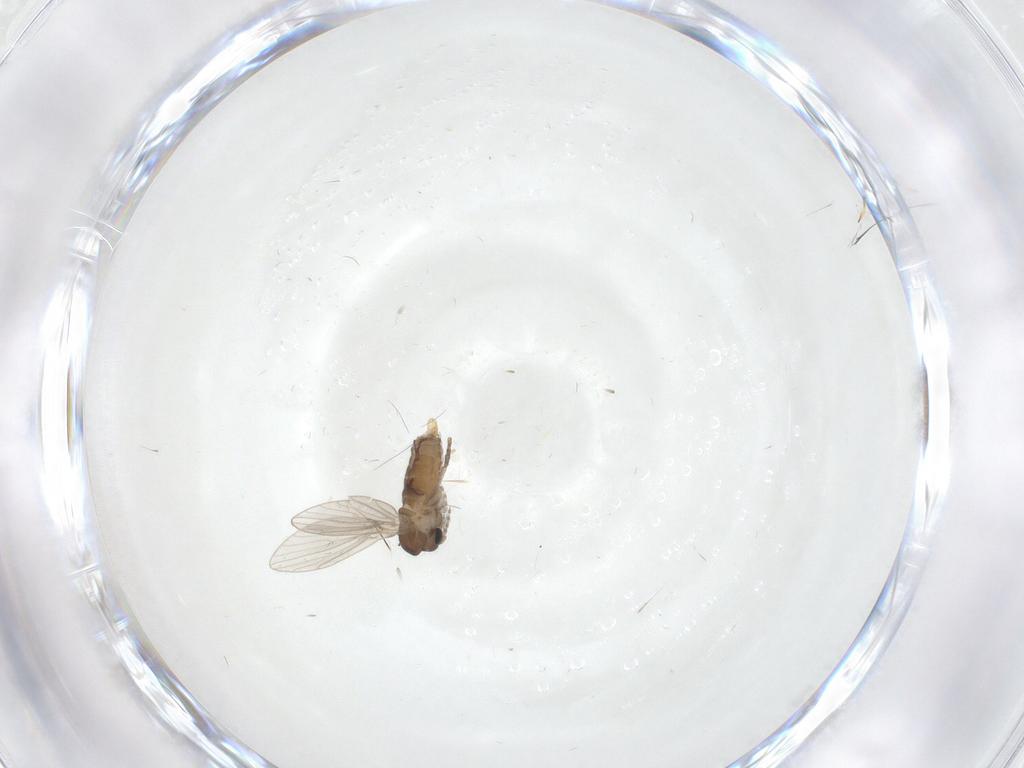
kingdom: Animalia
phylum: Arthropoda
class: Insecta
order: Diptera
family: Psychodidae
